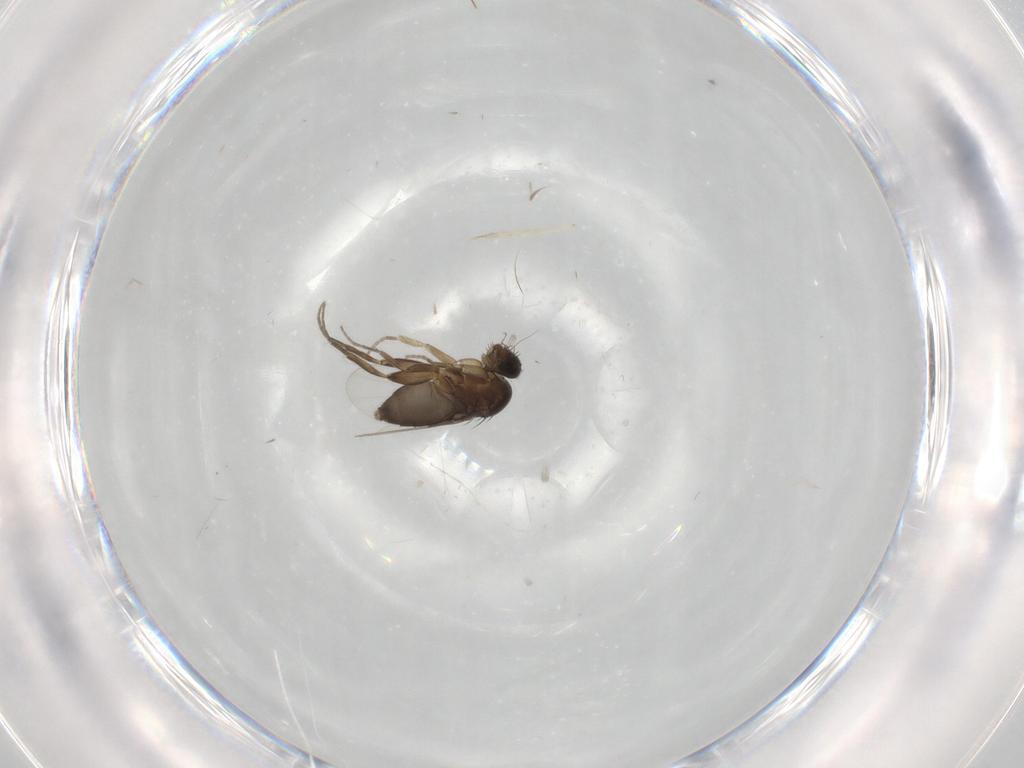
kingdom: Animalia
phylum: Arthropoda
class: Insecta
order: Diptera
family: Phoridae
